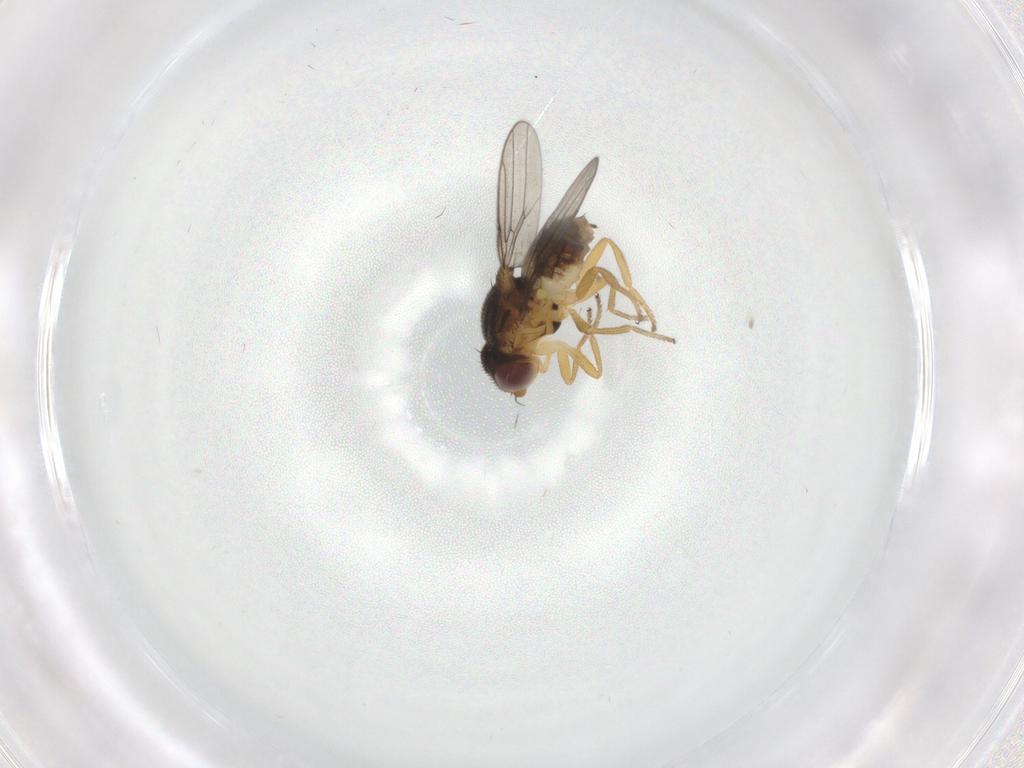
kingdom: Animalia
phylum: Arthropoda
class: Insecta
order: Diptera
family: Chloropidae
